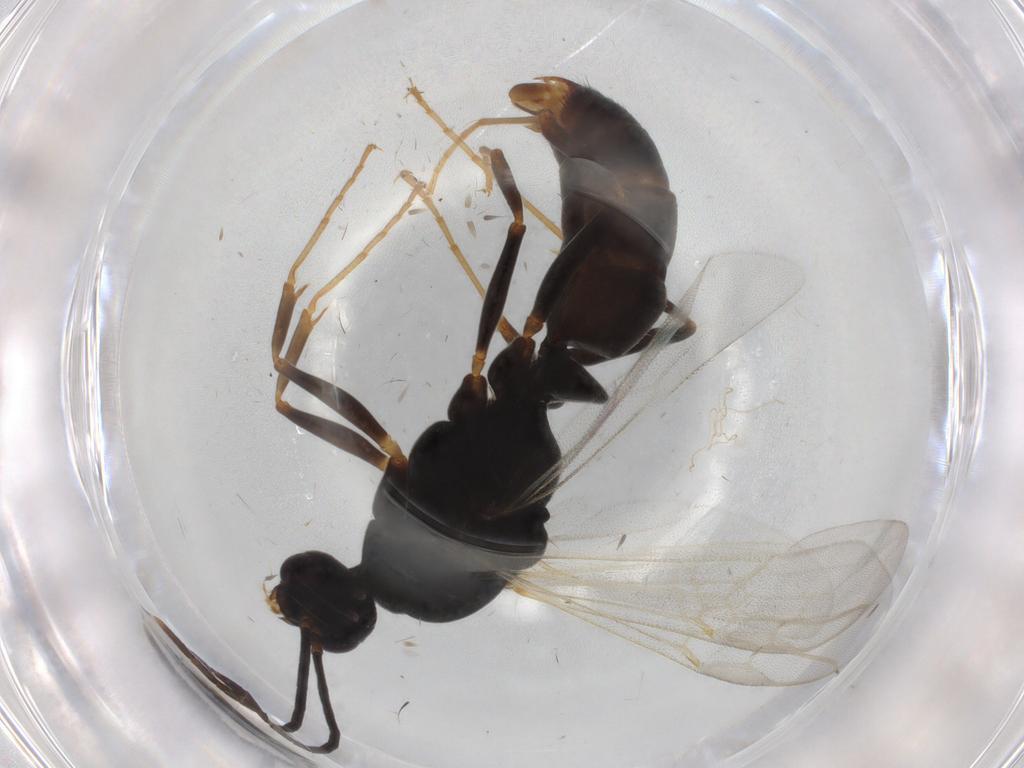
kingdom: Animalia
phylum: Arthropoda
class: Insecta
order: Hymenoptera
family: Formicidae
